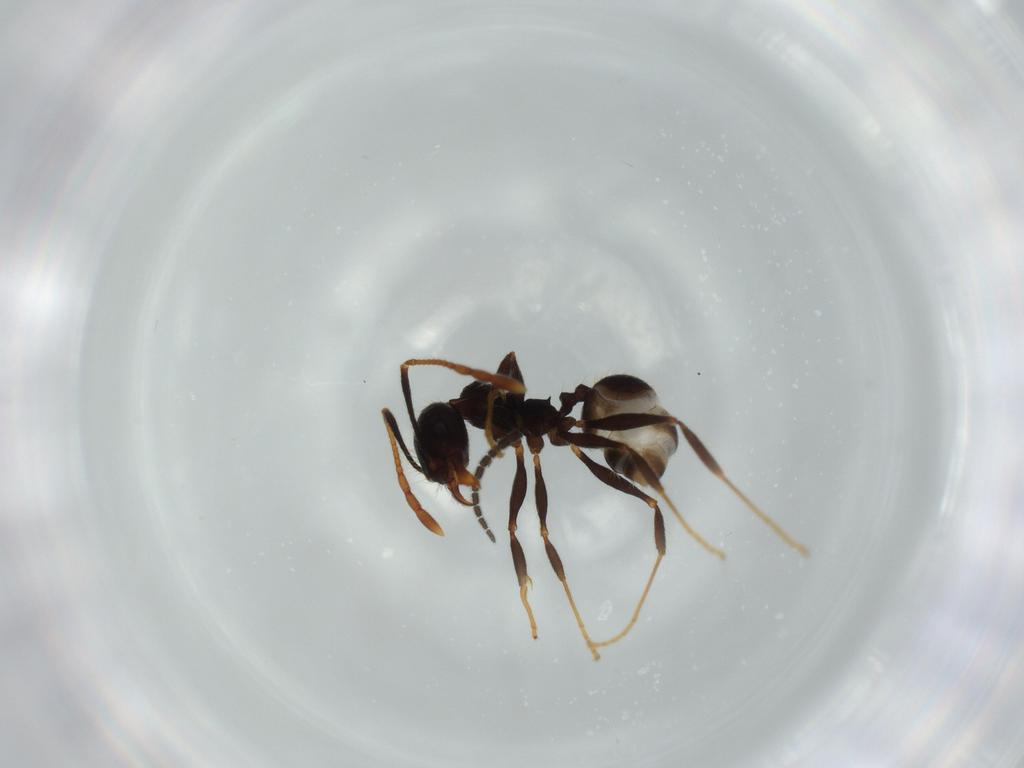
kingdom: Animalia
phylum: Arthropoda
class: Insecta
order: Hymenoptera
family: Formicidae
